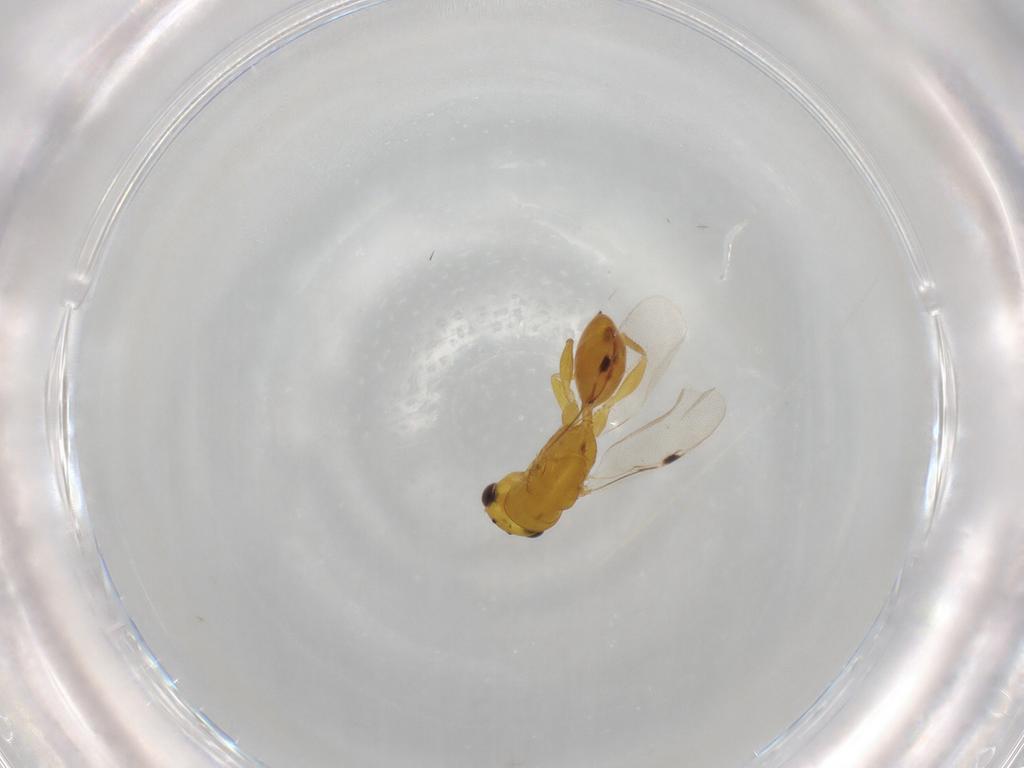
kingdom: Animalia
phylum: Arthropoda
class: Insecta
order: Hymenoptera
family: Eurytomidae
